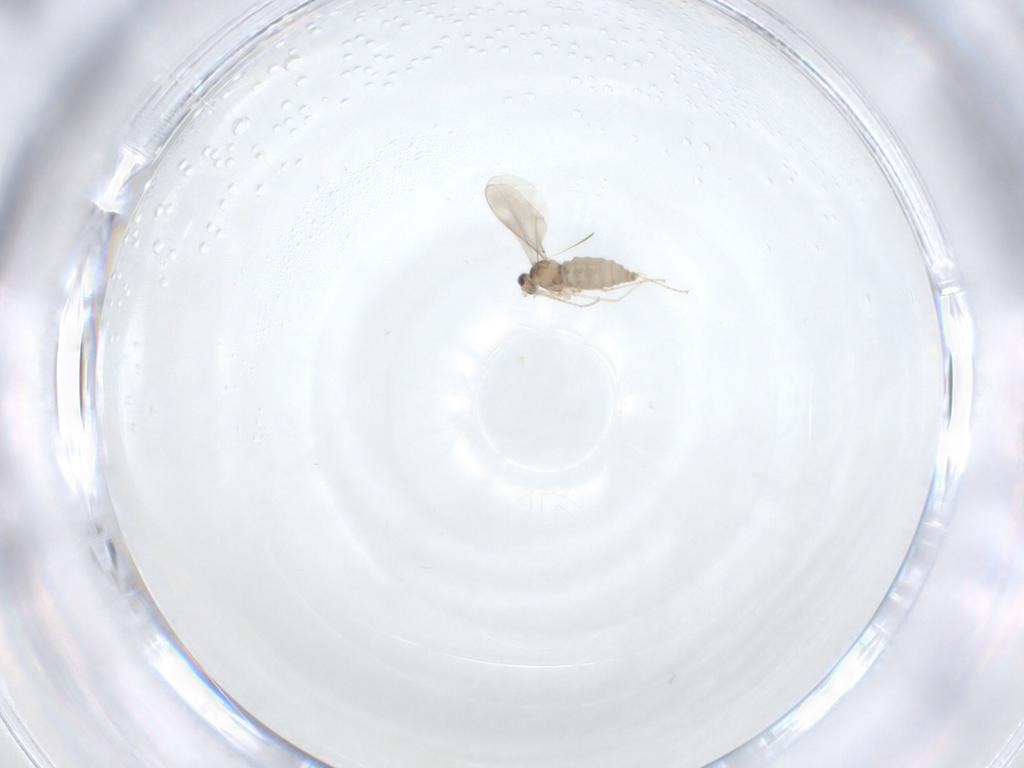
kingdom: Animalia
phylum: Arthropoda
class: Insecta
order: Diptera
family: Cecidomyiidae
